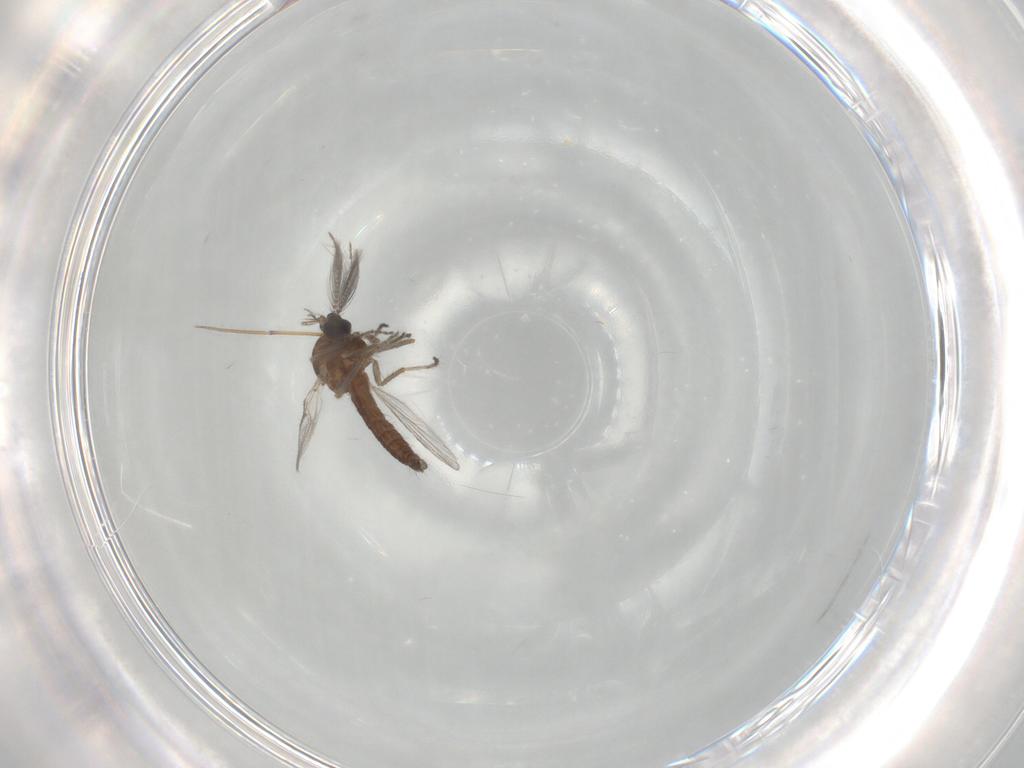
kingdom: Animalia
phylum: Arthropoda
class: Insecta
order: Diptera
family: Ceratopogonidae
